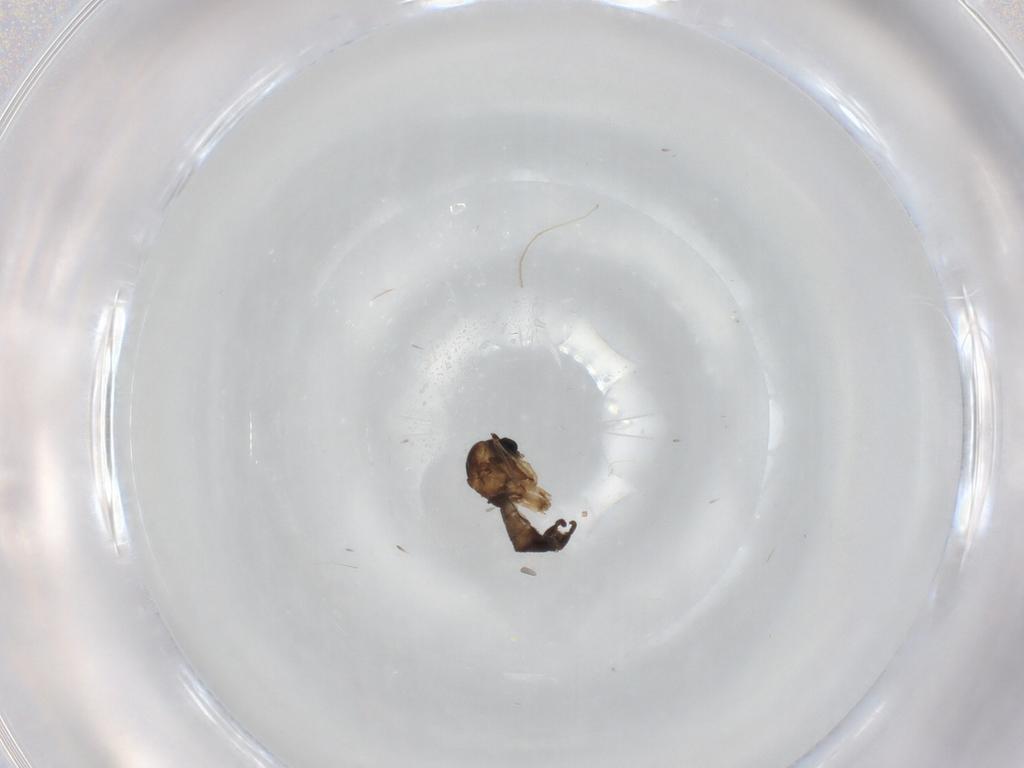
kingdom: Animalia
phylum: Arthropoda
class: Insecta
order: Diptera
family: Sciaridae
